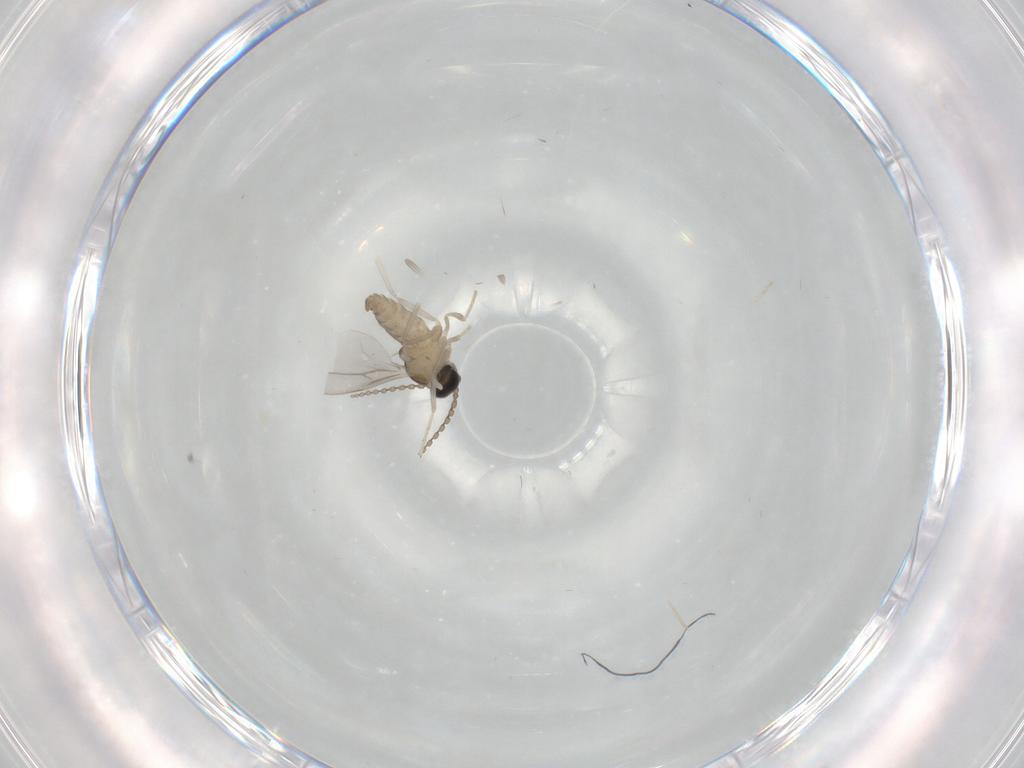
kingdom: Animalia
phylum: Arthropoda
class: Insecta
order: Diptera
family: Cecidomyiidae
